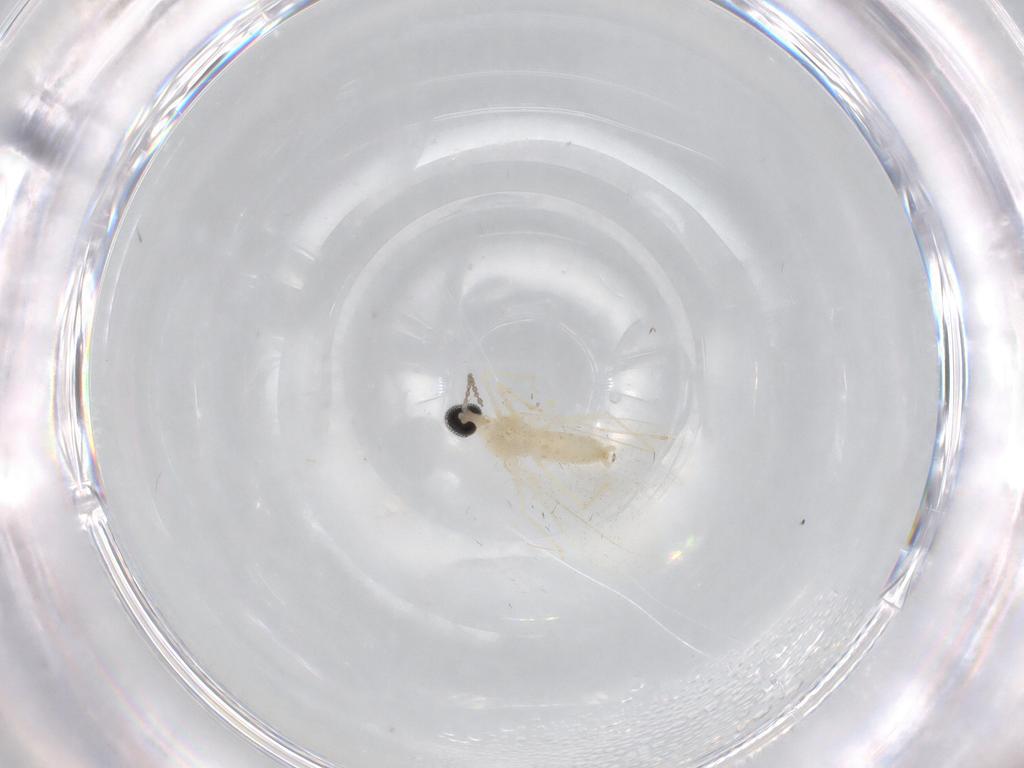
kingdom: Animalia
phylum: Arthropoda
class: Insecta
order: Diptera
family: Cecidomyiidae
